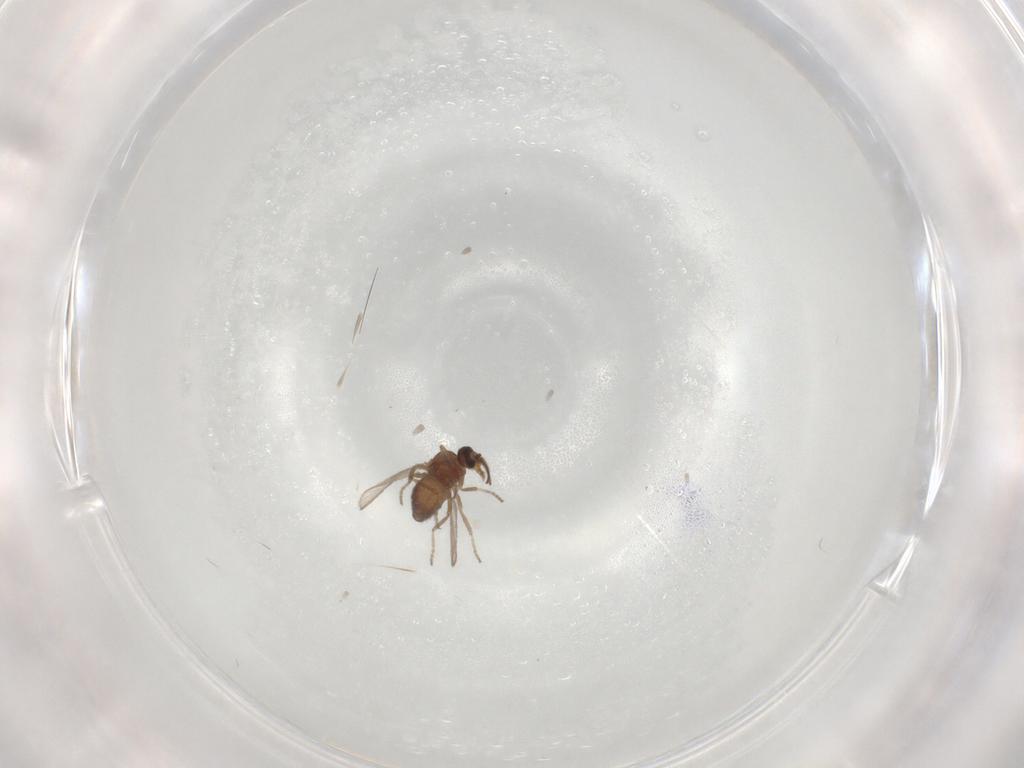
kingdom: Animalia
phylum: Arthropoda
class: Insecta
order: Diptera
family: Ceratopogonidae
